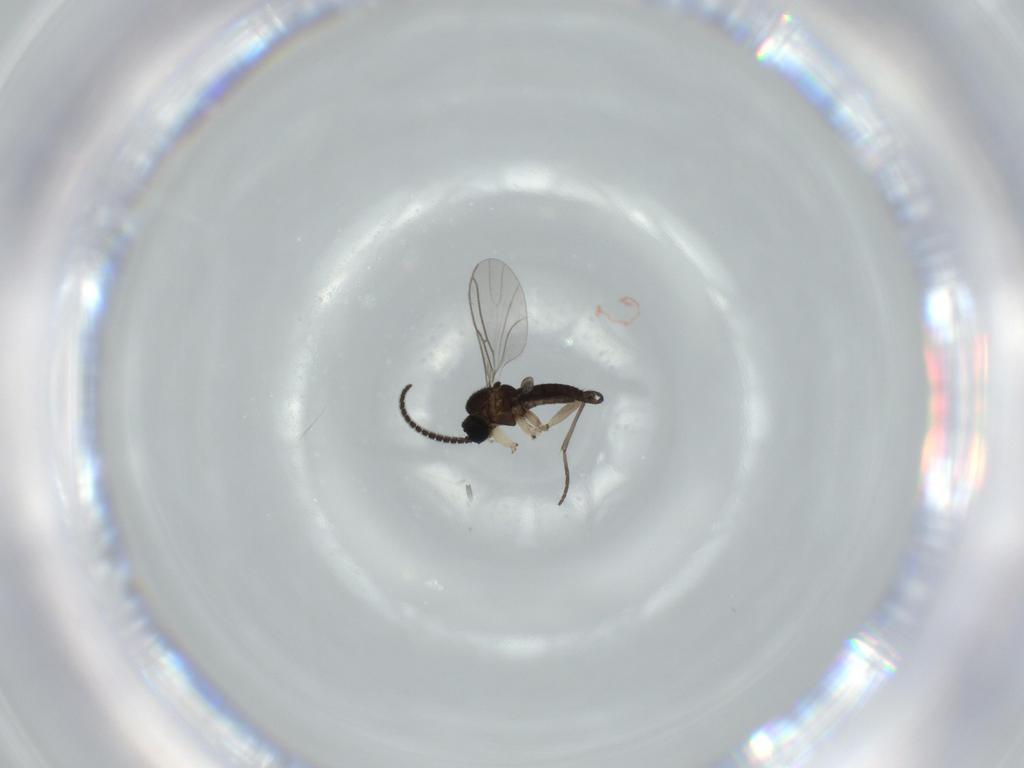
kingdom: Animalia
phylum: Arthropoda
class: Insecta
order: Diptera
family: Sciaridae
